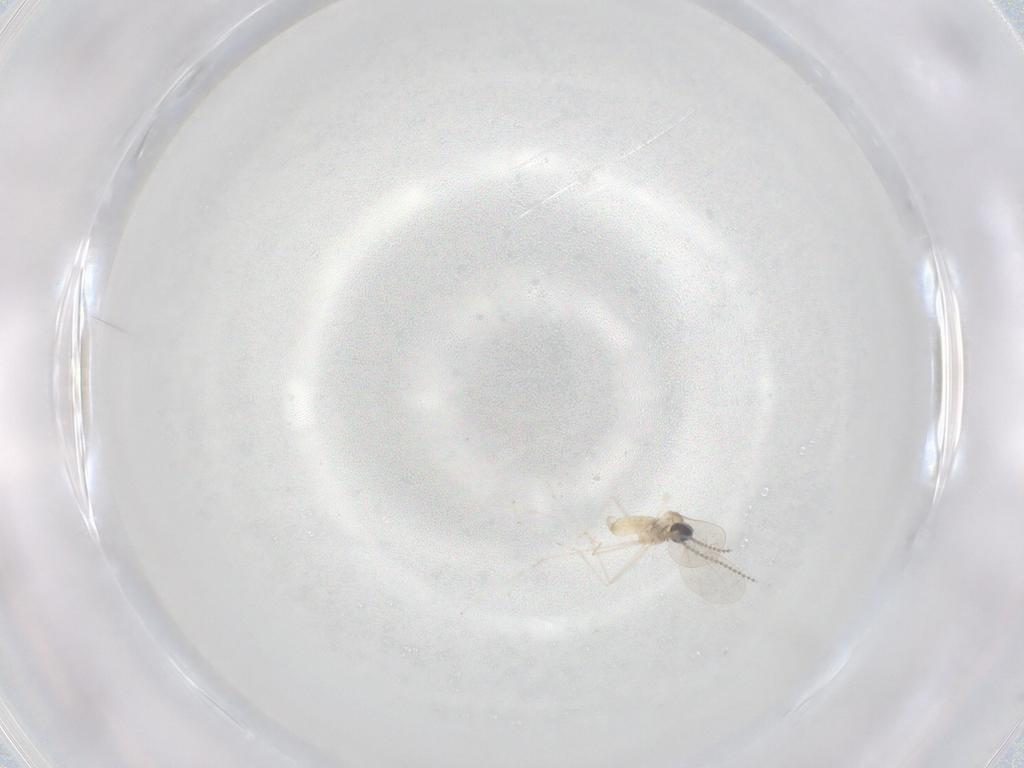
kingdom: Animalia
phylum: Arthropoda
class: Insecta
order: Diptera
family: Cecidomyiidae
